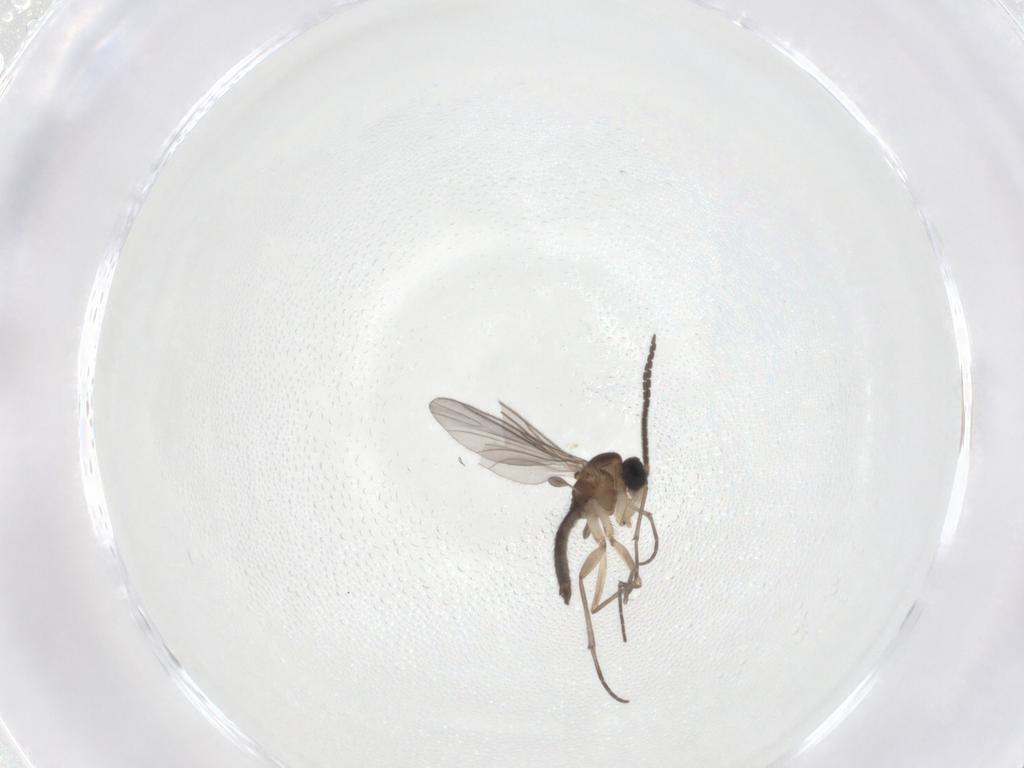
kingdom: Animalia
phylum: Arthropoda
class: Insecta
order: Diptera
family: Sciaridae
